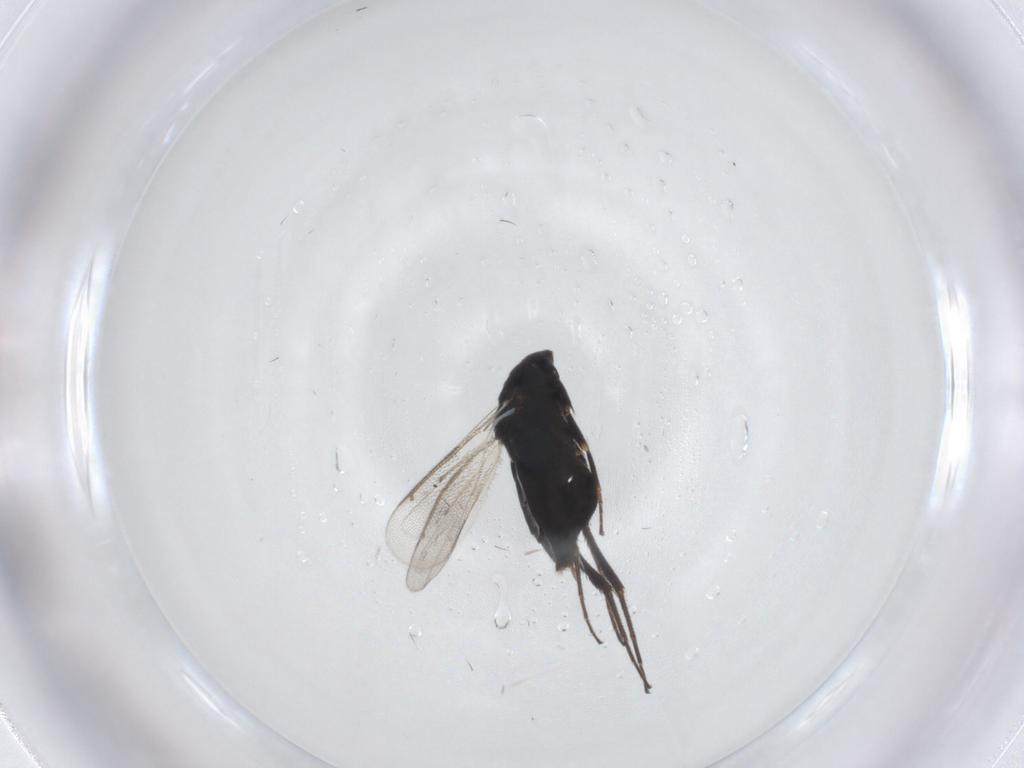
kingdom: Animalia
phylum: Arthropoda
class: Insecta
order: Hymenoptera
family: Eulophidae
